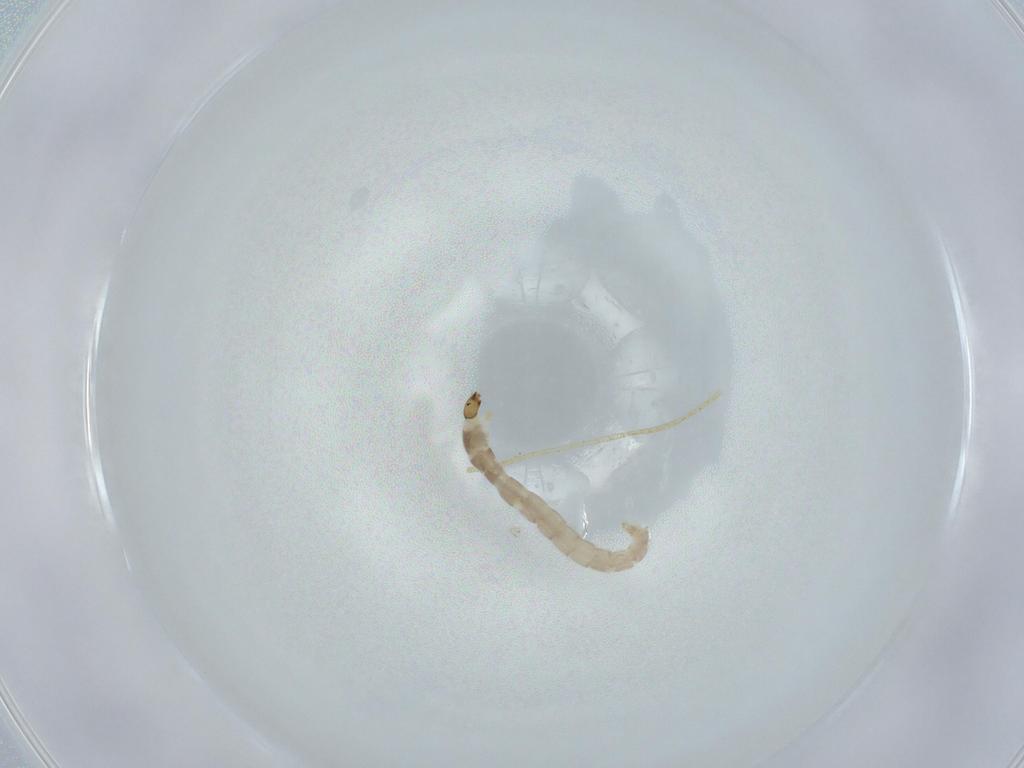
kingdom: Animalia
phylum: Arthropoda
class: Insecta
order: Diptera
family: Chironomidae
